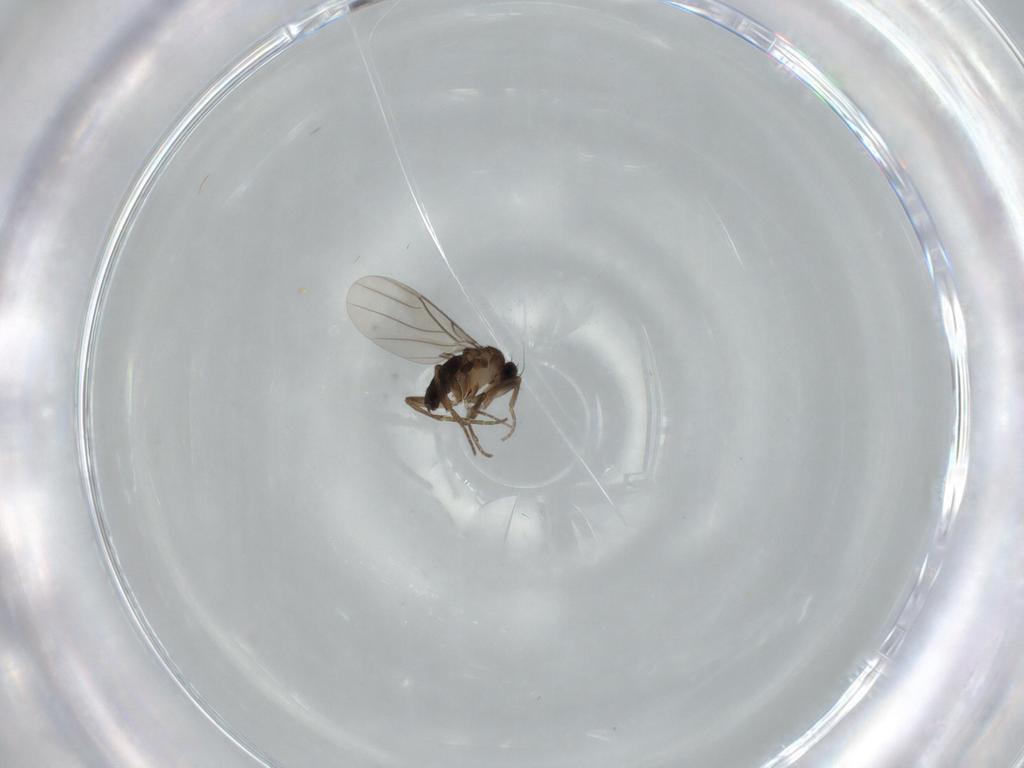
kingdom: Animalia
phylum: Arthropoda
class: Insecta
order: Diptera
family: Phoridae
